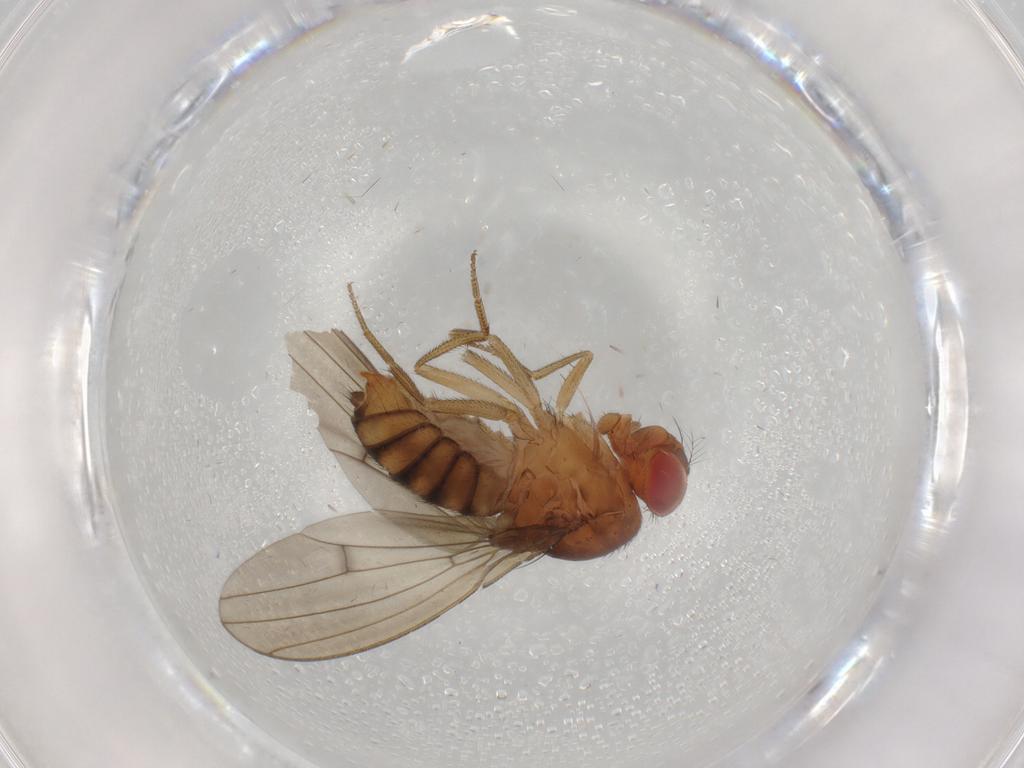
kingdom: Animalia
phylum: Arthropoda
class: Insecta
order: Diptera
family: Drosophilidae
